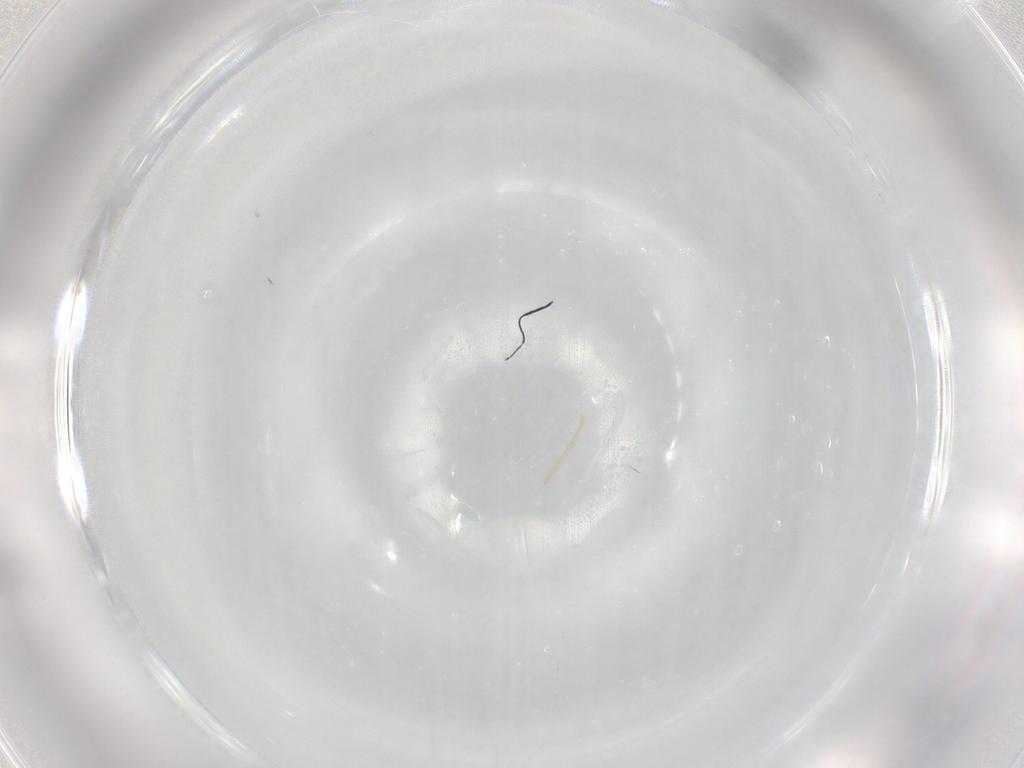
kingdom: Animalia
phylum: Arthropoda
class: Insecta
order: Hymenoptera
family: Scelionidae
